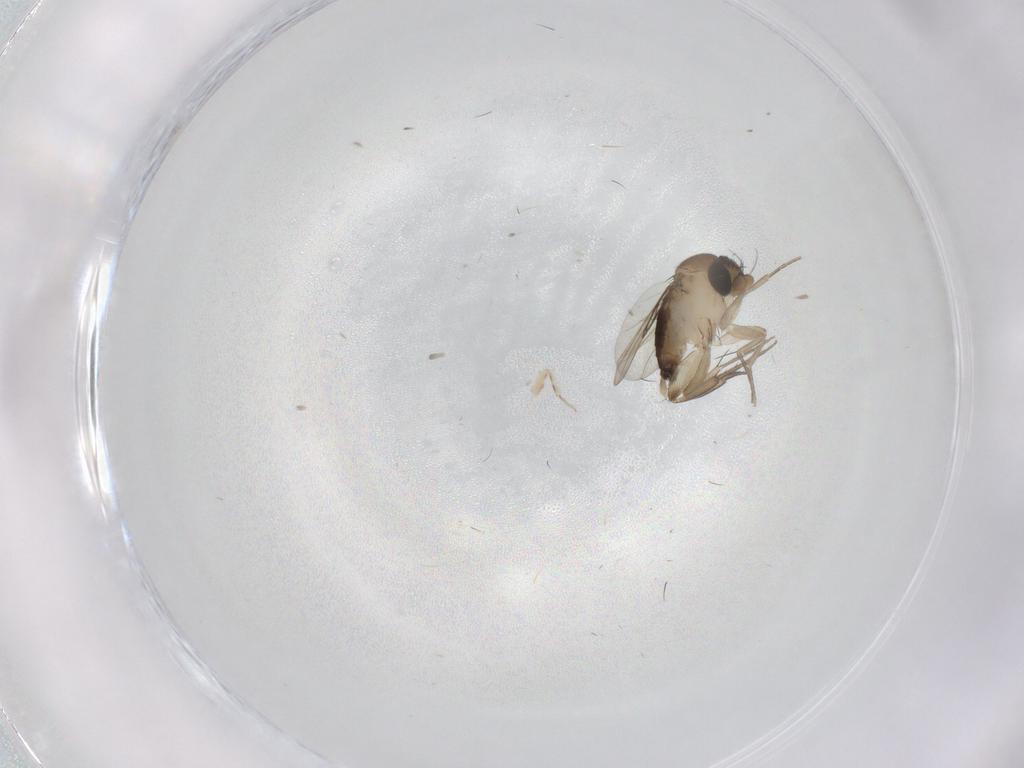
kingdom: Animalia
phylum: Arthropoda
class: Insecta
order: Diptera
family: Phoridae
